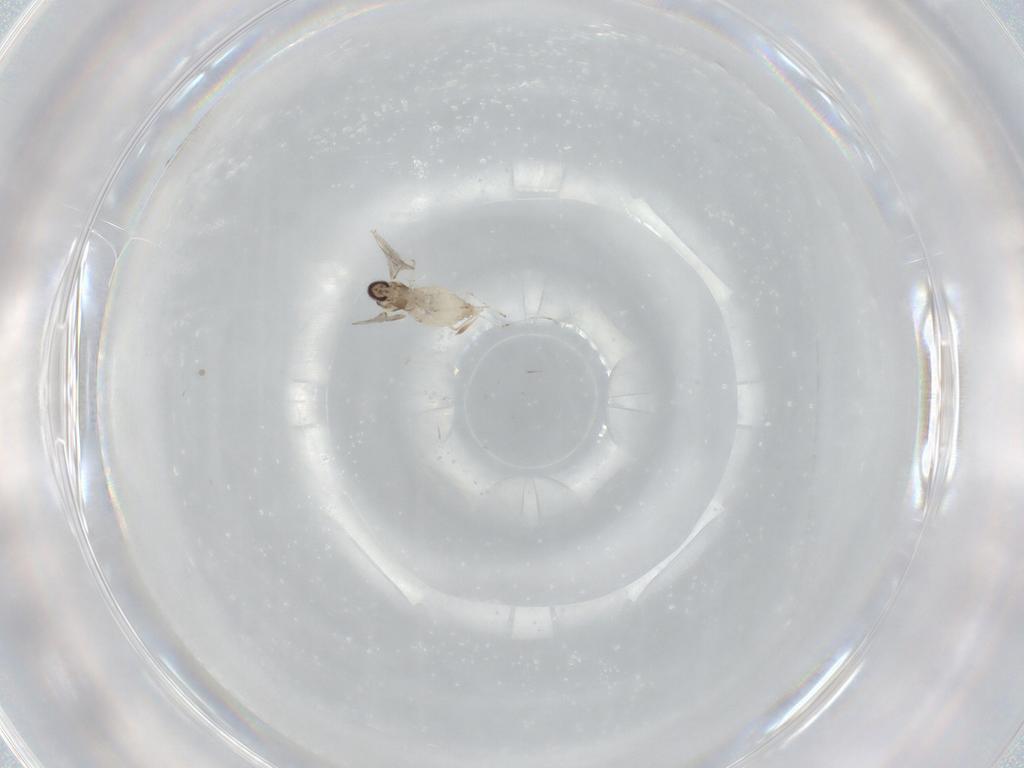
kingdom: Animalia
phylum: Arthropoda
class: Insecta
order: Diptera
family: Cecidomyiidae
